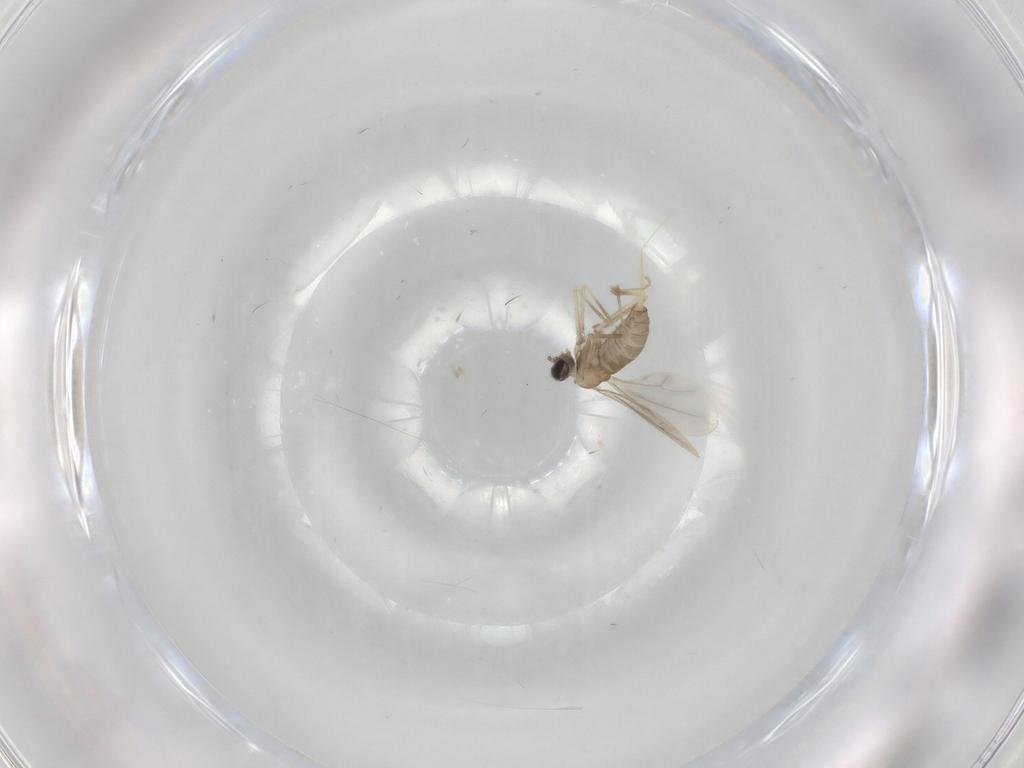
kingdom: Animalia
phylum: Arthropoda
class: Insecta
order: Diptera
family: Cecidomyiidae
